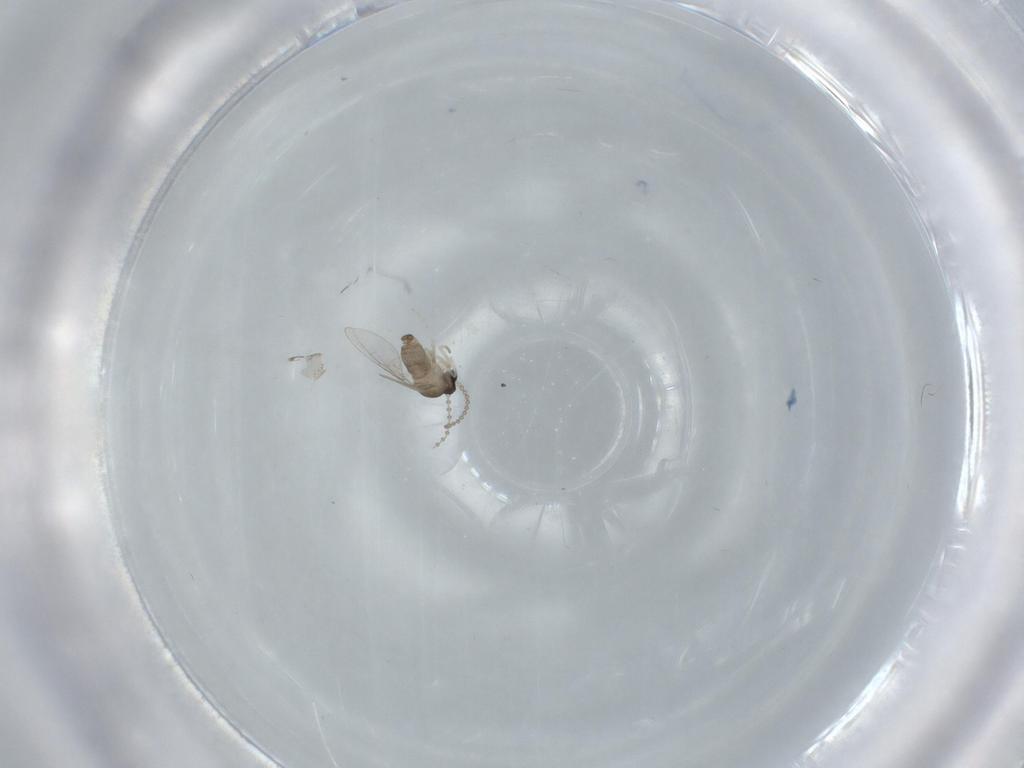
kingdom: Animalia
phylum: Arthropoda
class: Insecta
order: Diptera
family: Cecidomyiidae
